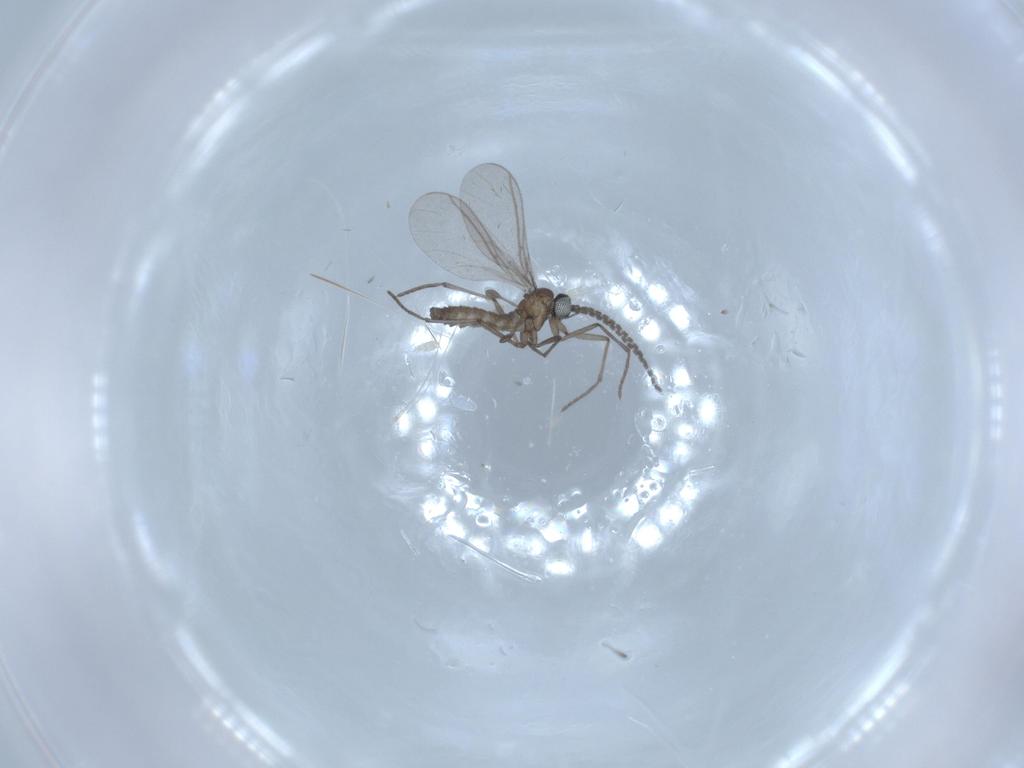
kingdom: Animalia
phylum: Arthropoda
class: Insecta
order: Diptera
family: Sciaridae
